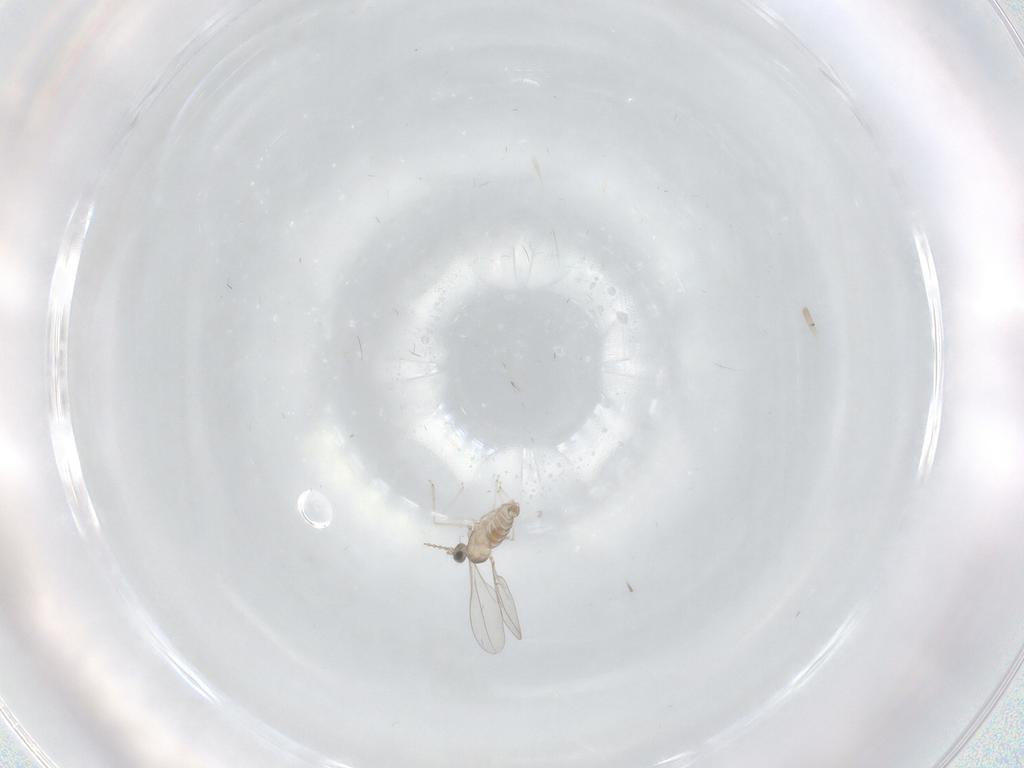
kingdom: Animalia
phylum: Arthropoda
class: Insecta
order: Diptera
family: Cecidomyiidae
